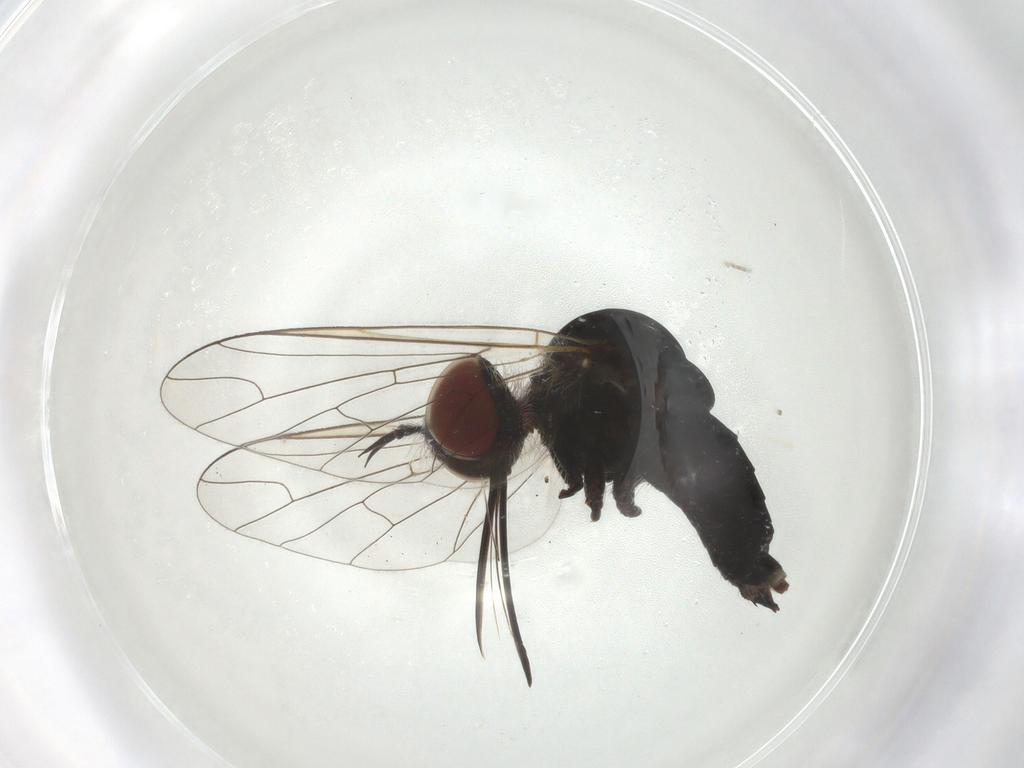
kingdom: Animalia
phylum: Arthropoda
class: Insecta
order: Diptera
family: Bombyliidae
